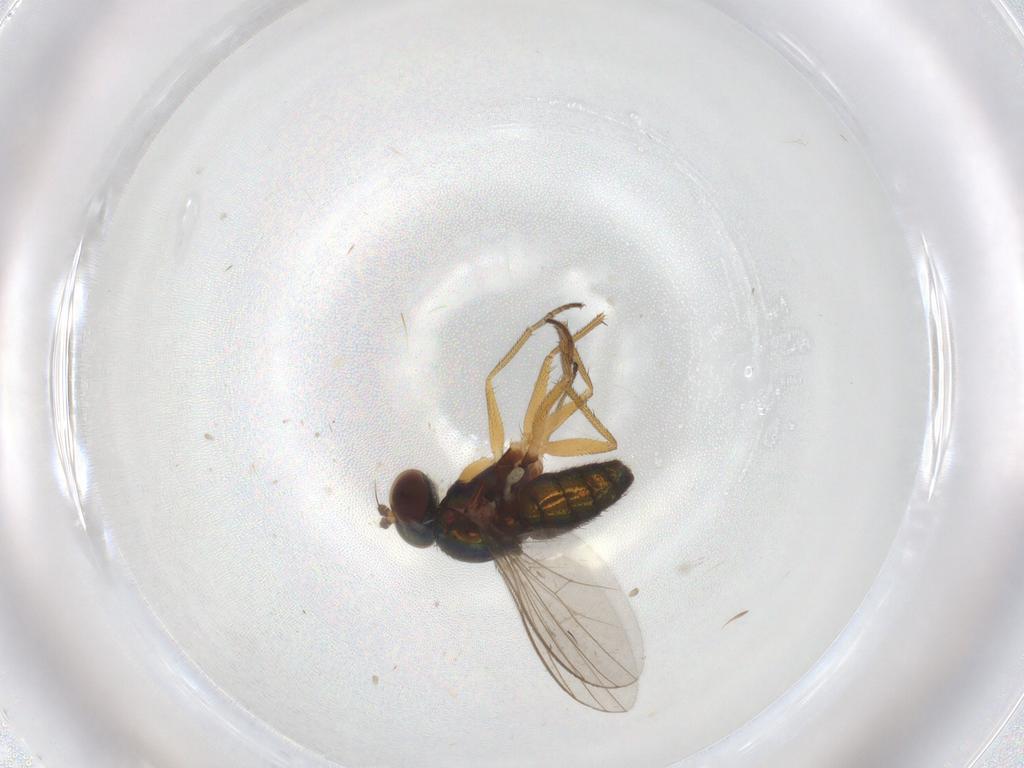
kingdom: Animalia
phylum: Arthropoda
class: Insecta
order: Diptera
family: Dolichopodidae
